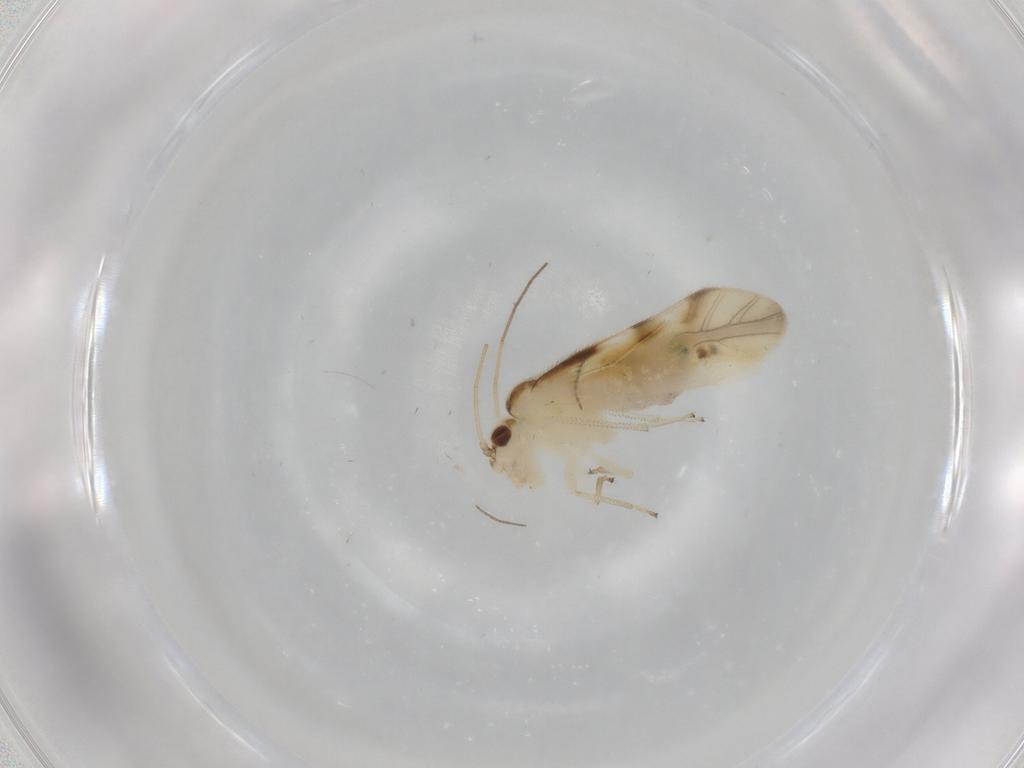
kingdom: Animalia
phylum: Arthropoda
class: Insecta
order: Psocodea
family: Caeciliusidae
